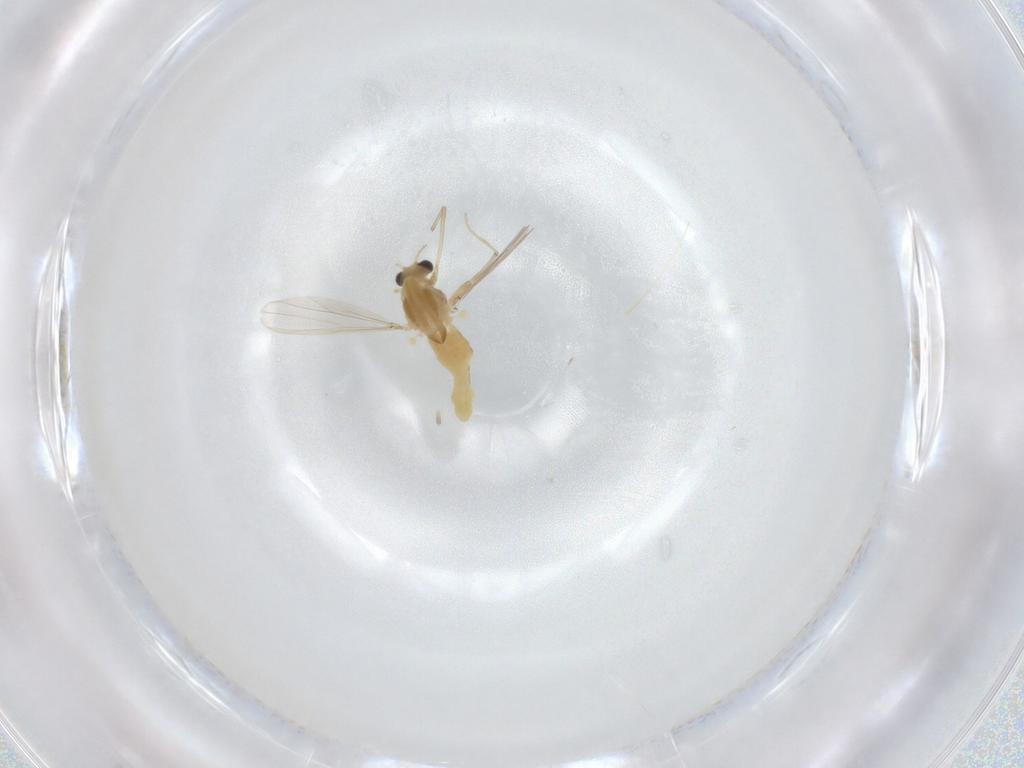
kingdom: Animalia
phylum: Arthropoda
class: Insecta
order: Diptera
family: Chironomidae
